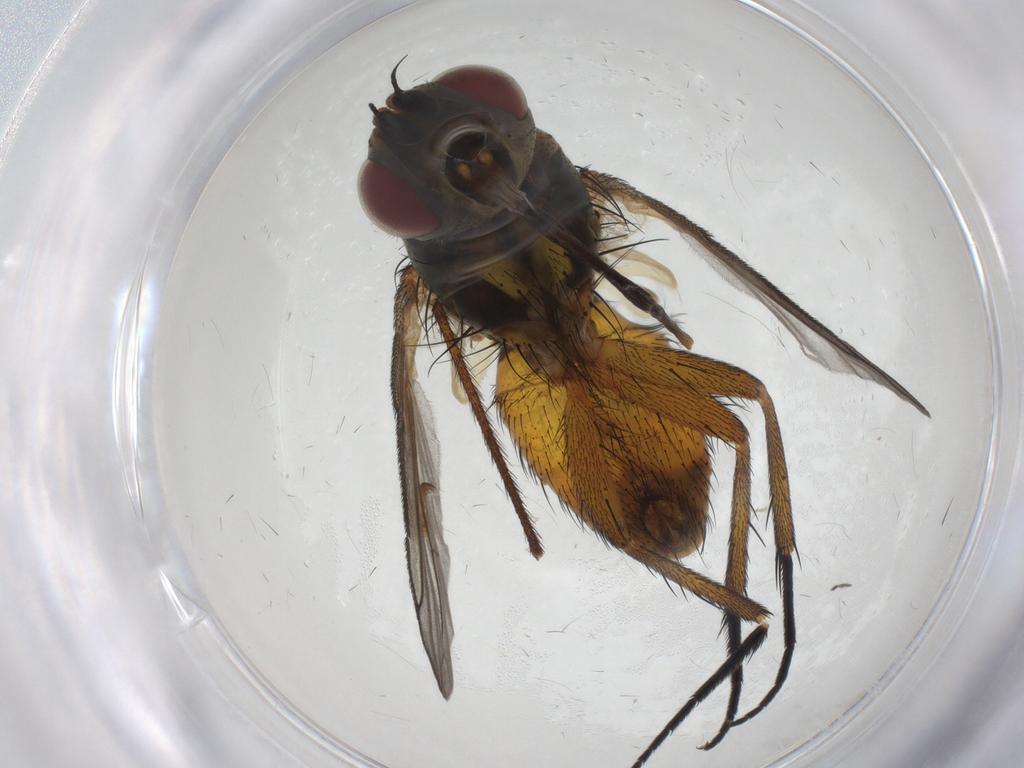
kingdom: Animalia
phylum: Arthropoda
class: Insecta
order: Diptera
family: Tachinidae
